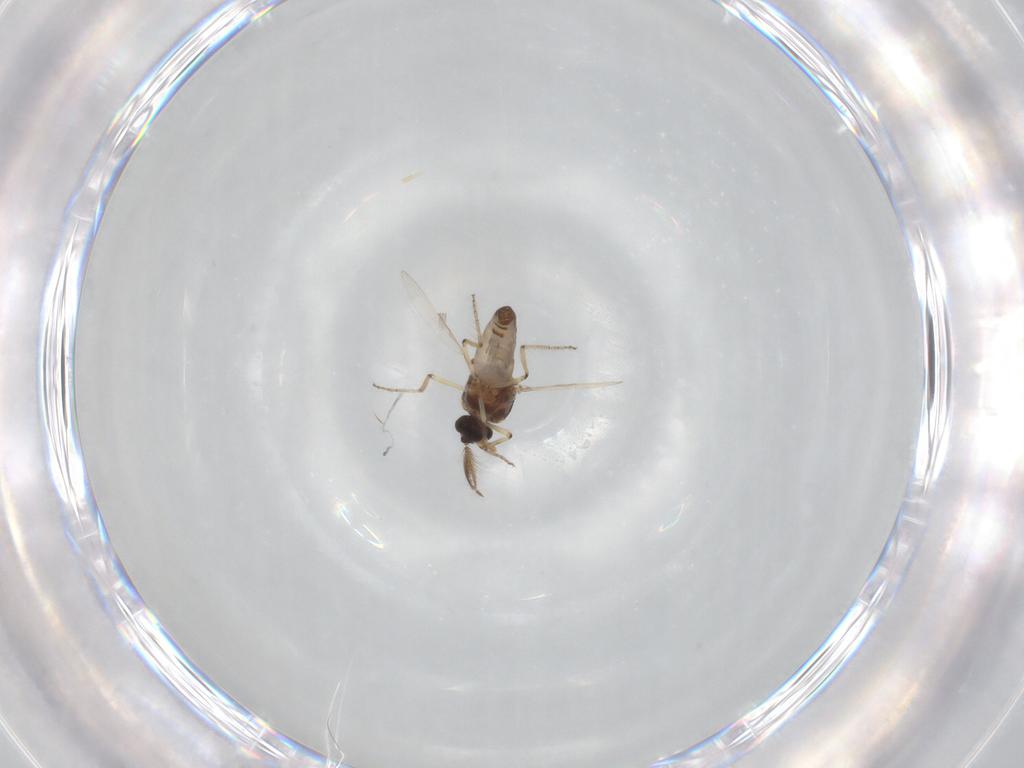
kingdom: Animalia
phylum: Arthropoda
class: Insecta
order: Diptera
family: Ceratopogonidae
